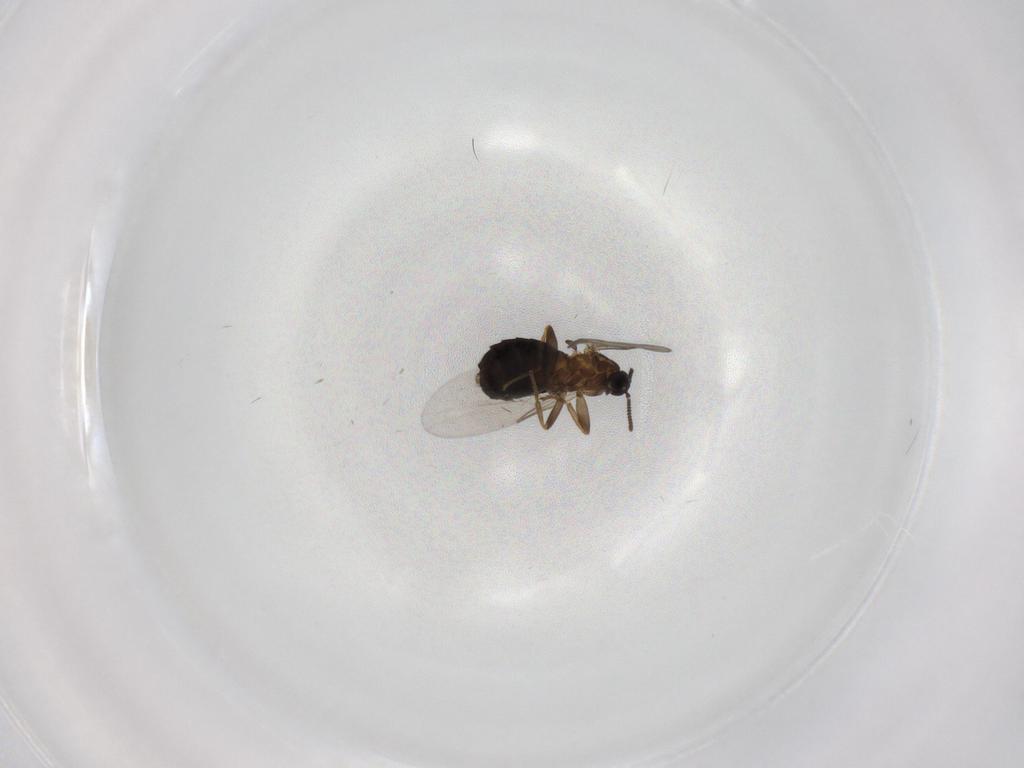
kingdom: Animalia
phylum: Arthropoda
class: Insecta
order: Diptera
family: Scatopsidae
